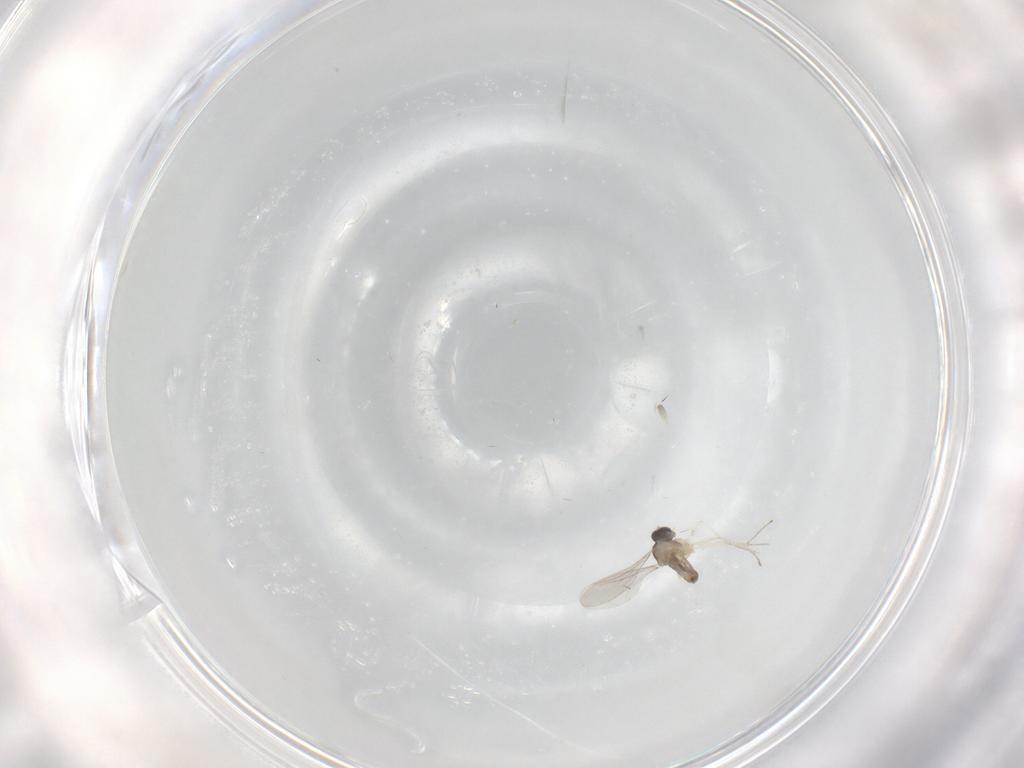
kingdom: Animalia
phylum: Arthropoda
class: Insecta
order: Diptera
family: Cecidomyiidae
